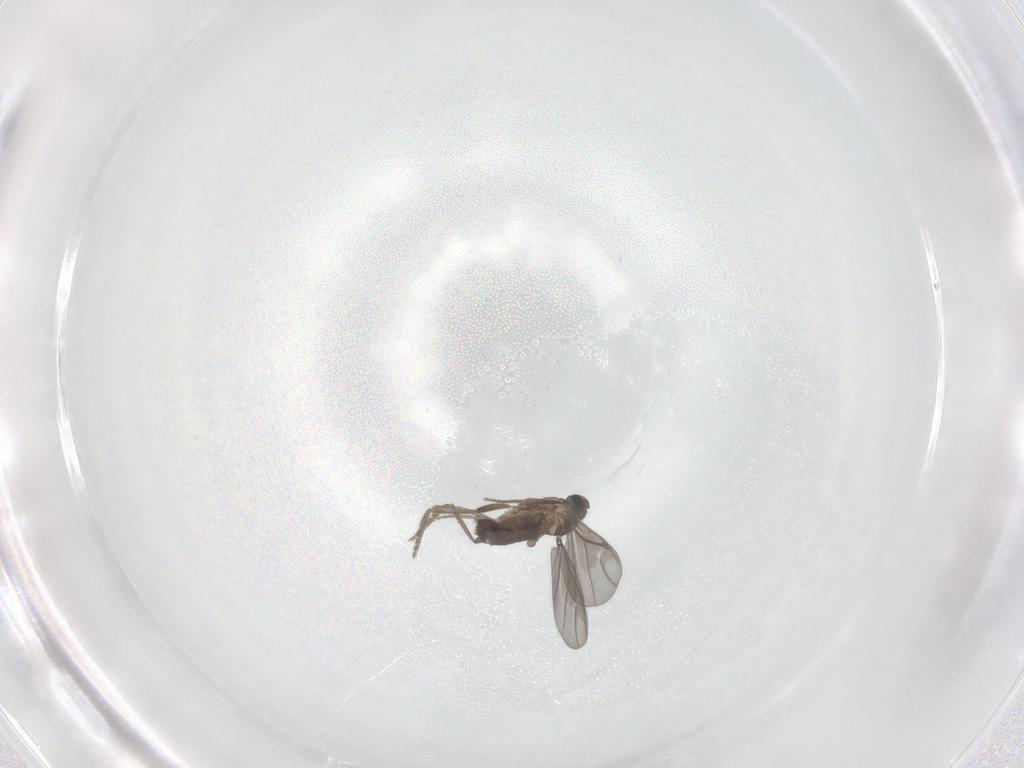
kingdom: Animalia
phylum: Arthropoda
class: Insecta
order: Diptera
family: Phoridae
